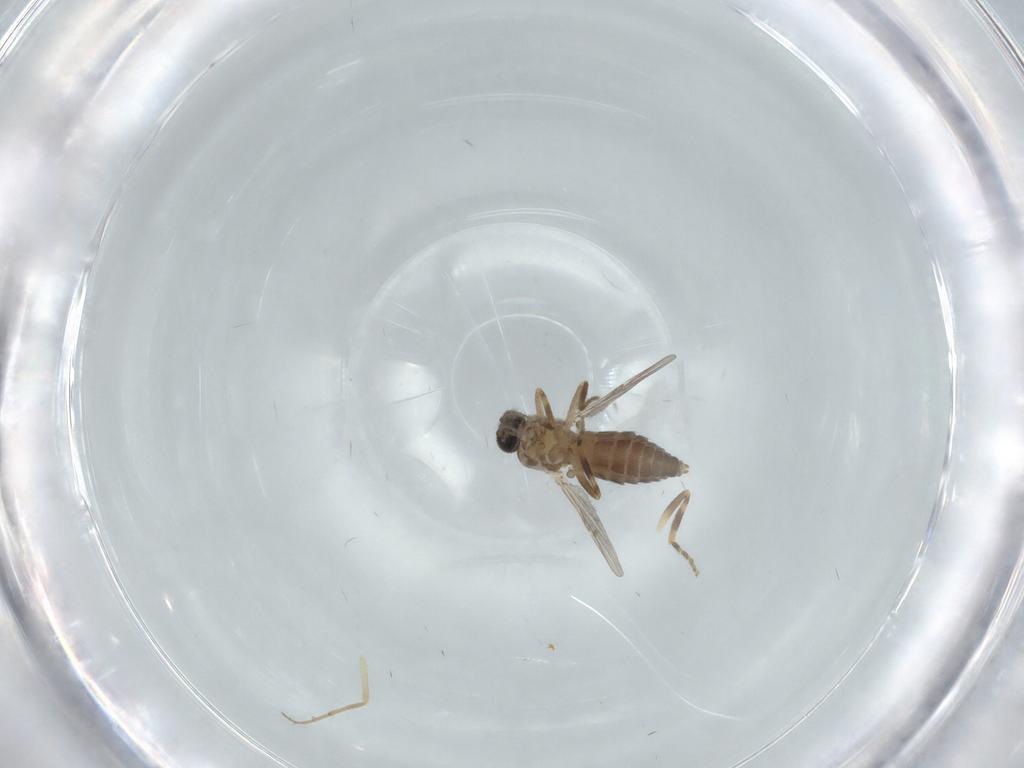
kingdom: Animalia
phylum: Arthropoda
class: Insecta
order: Diptera
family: Ceratopogonidae
